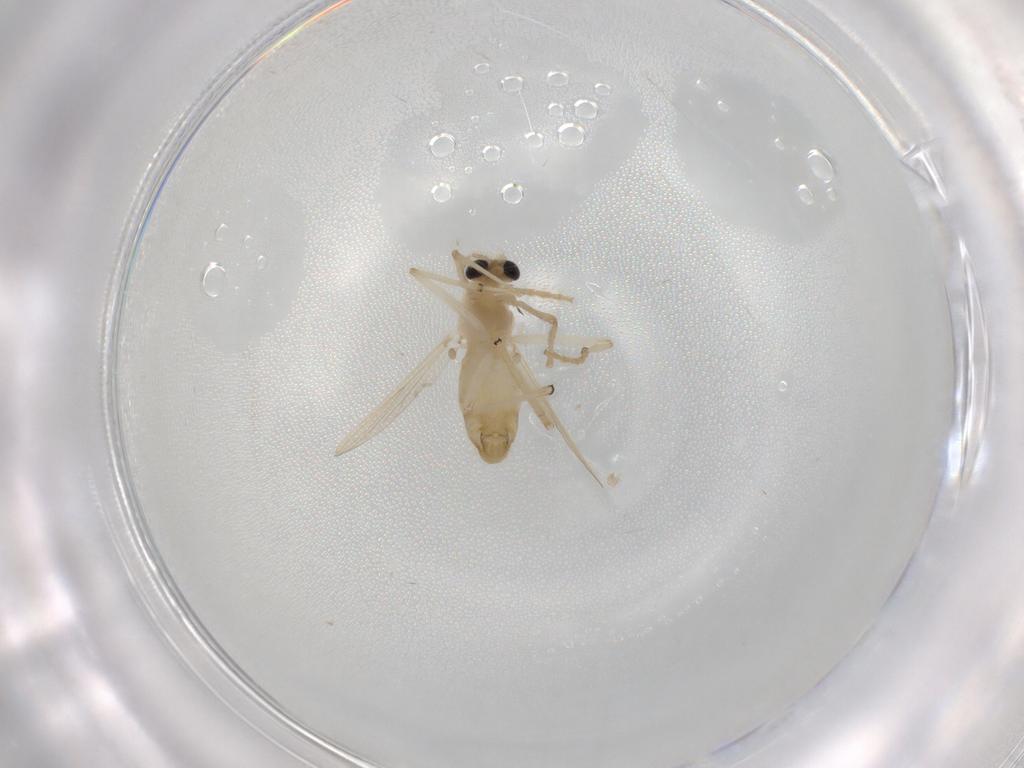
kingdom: Animalia
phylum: Arthropoda
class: Insecta
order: Diptera
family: Chironomidae
